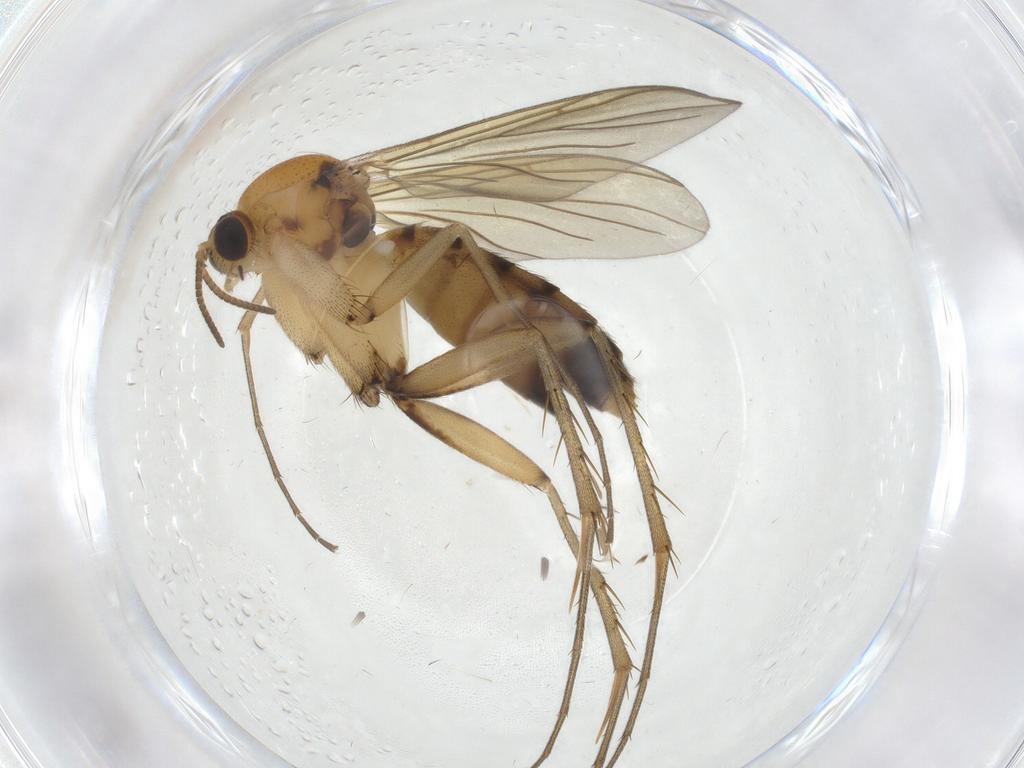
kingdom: Animalia
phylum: Arthropoda
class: Insecta
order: Diptera
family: Mycetophilidae
